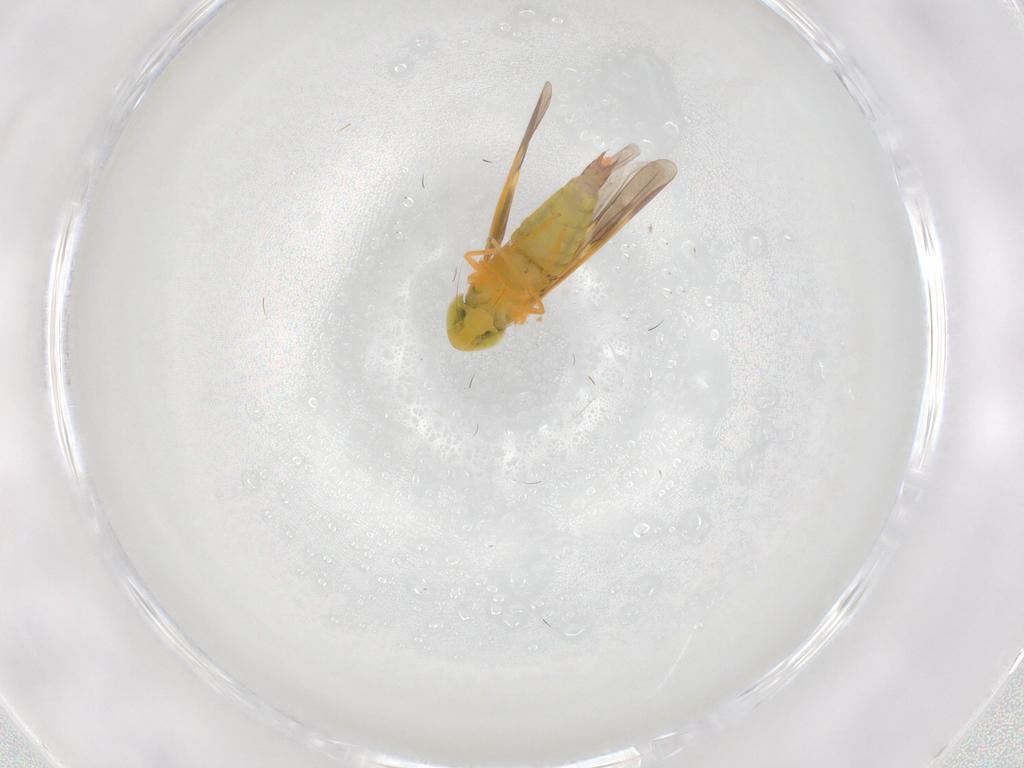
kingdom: Animalia
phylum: Arthropoda
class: Insecta
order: Hemiptera
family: Cicadellidae
